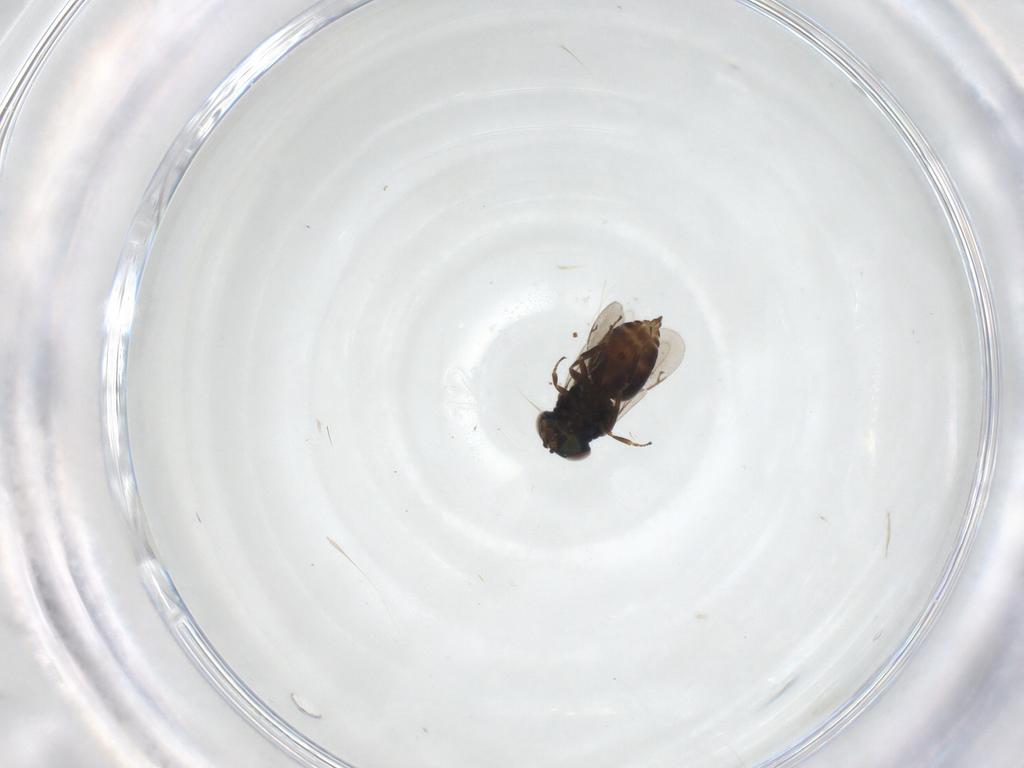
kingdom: Animalia
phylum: Arthropoda
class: Insecta
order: Hymenoptera
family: Eunotidae
